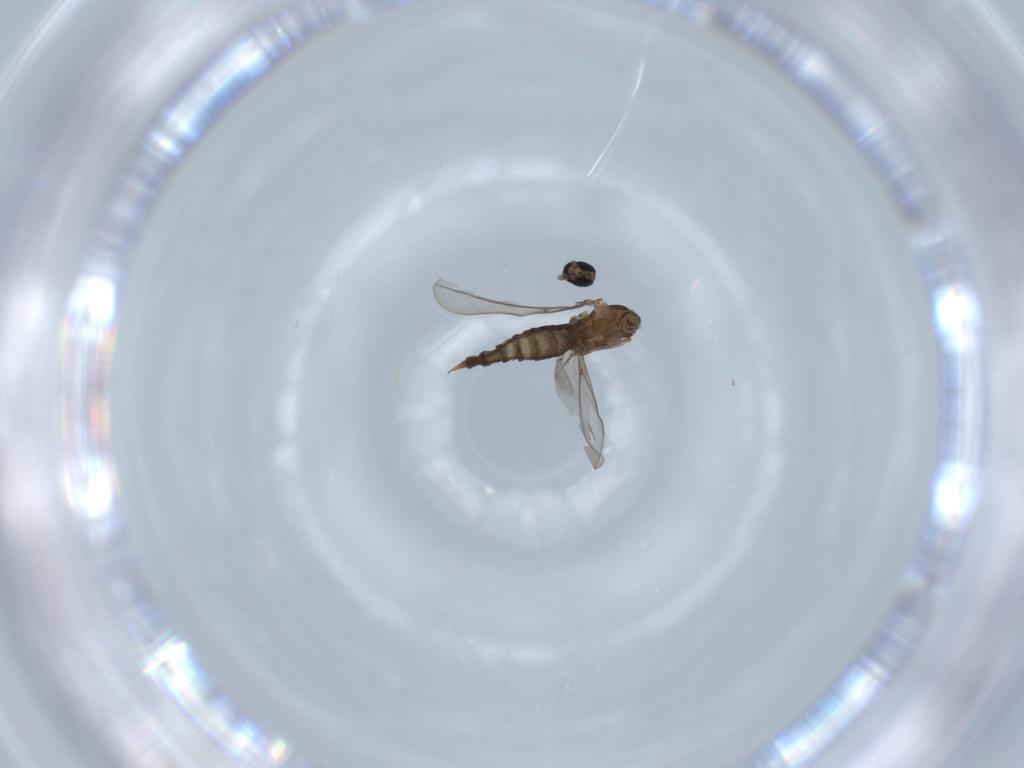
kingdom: Animalia
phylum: Arthropoda
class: Insecta
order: Diptera
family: Cecidomyiidae
